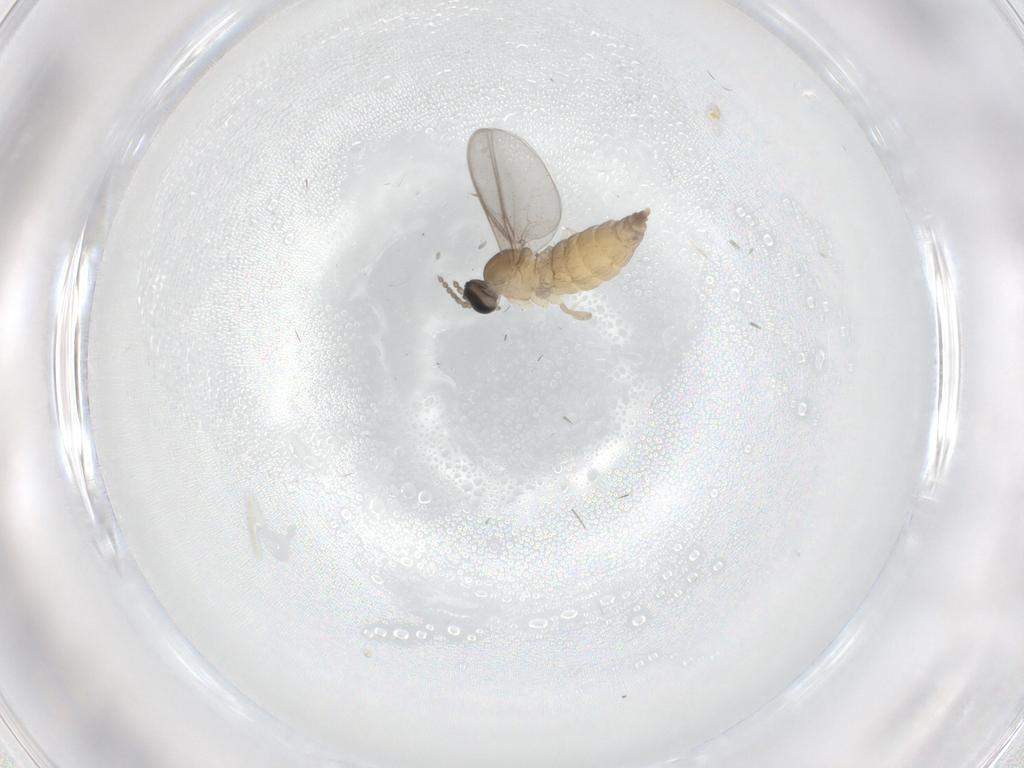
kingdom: Animalia
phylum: Arthropoda
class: Insecta
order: Diptera
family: Cecidomyiidae
